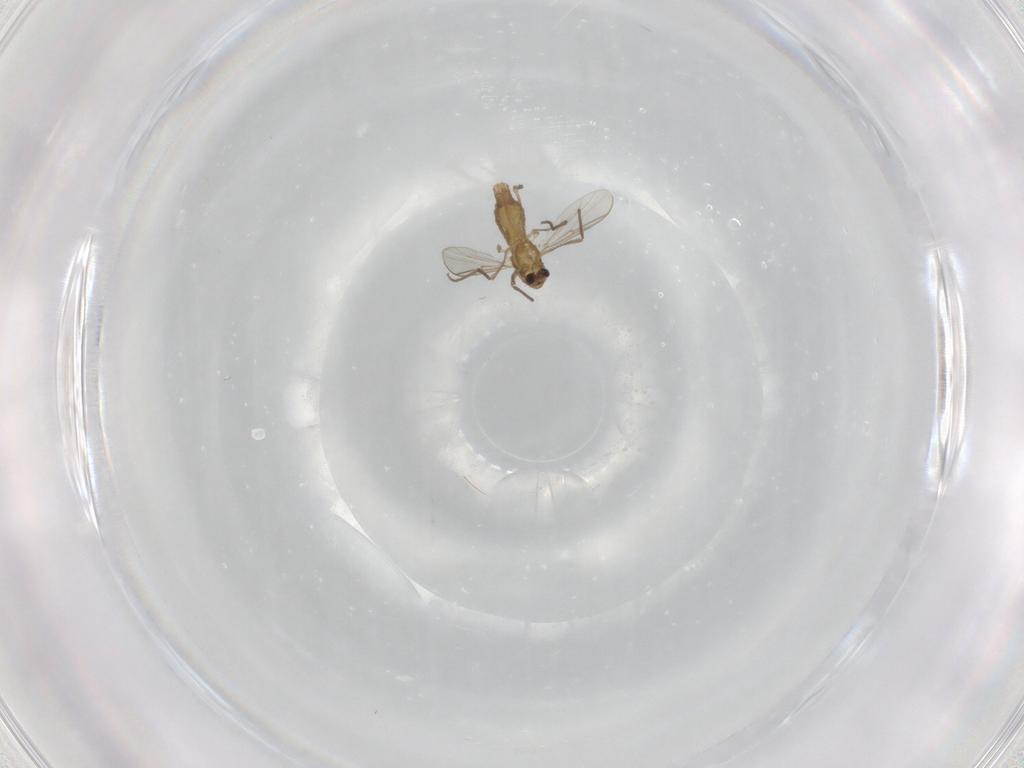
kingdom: Animalia
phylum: Arthropoda
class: Insecta
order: Diptera
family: Chironomidae
